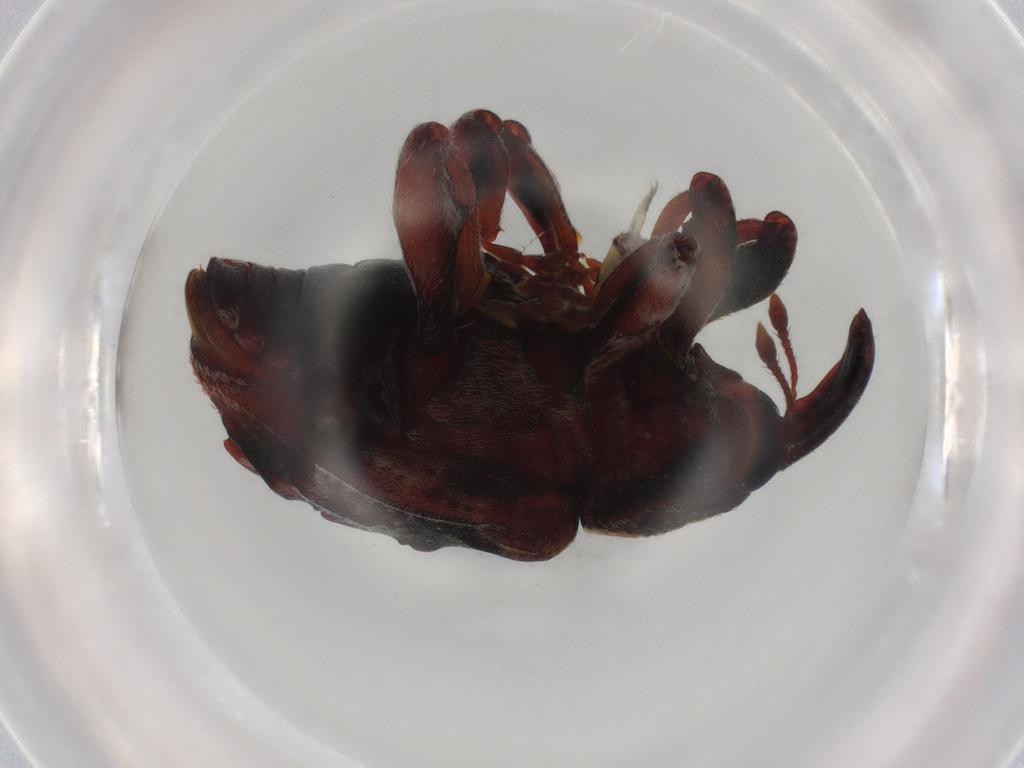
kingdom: Animalia
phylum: Arthropoda
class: Insecta
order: Coleoptera
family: Curculionidae
